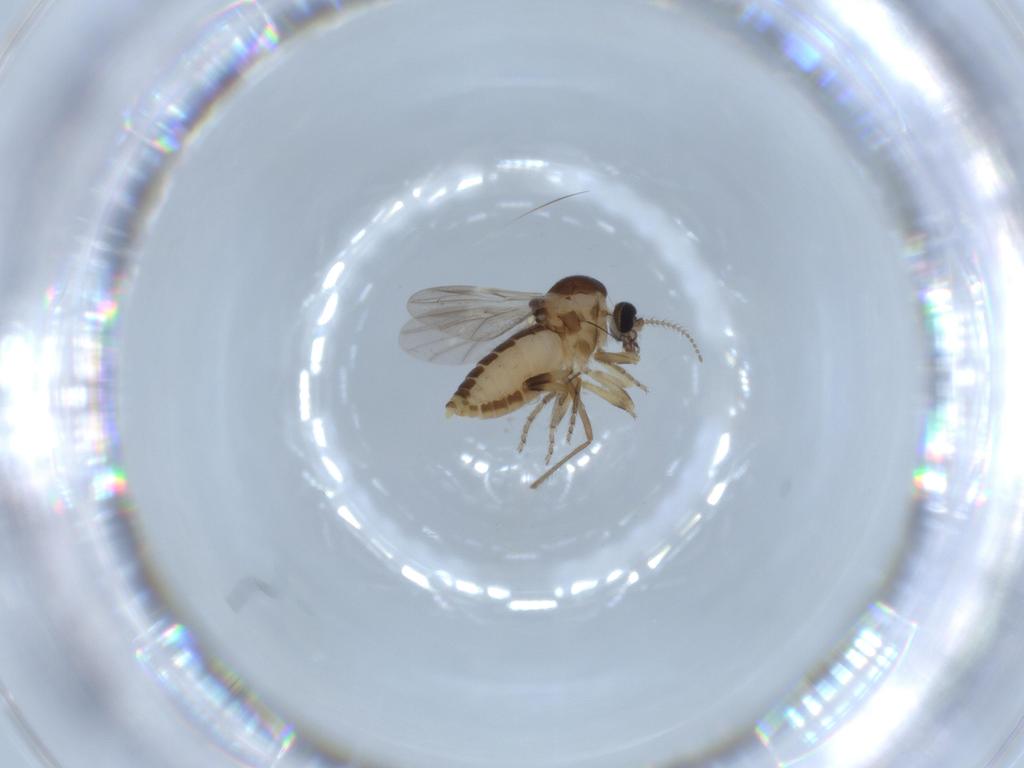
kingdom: Animalia
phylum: Arthropoda
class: Insecta
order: Diptera
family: Ceratopogonidae
